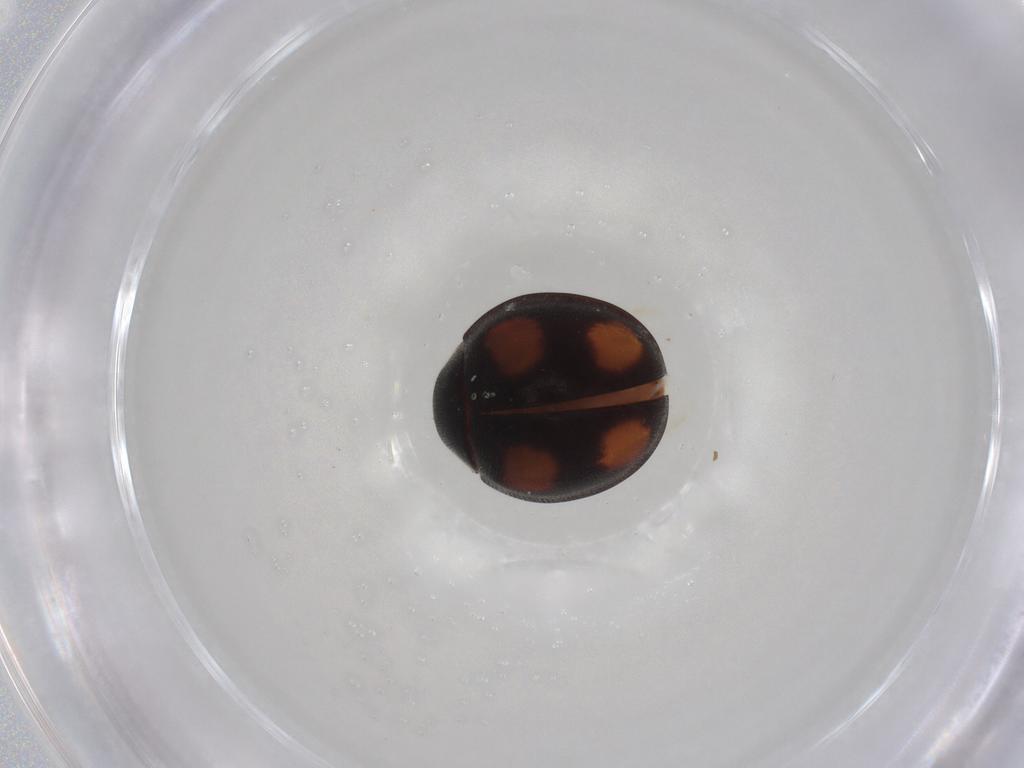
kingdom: Animalia
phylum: Arthropoda
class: Insecta
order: Coleoptera
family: Coccinellidae
